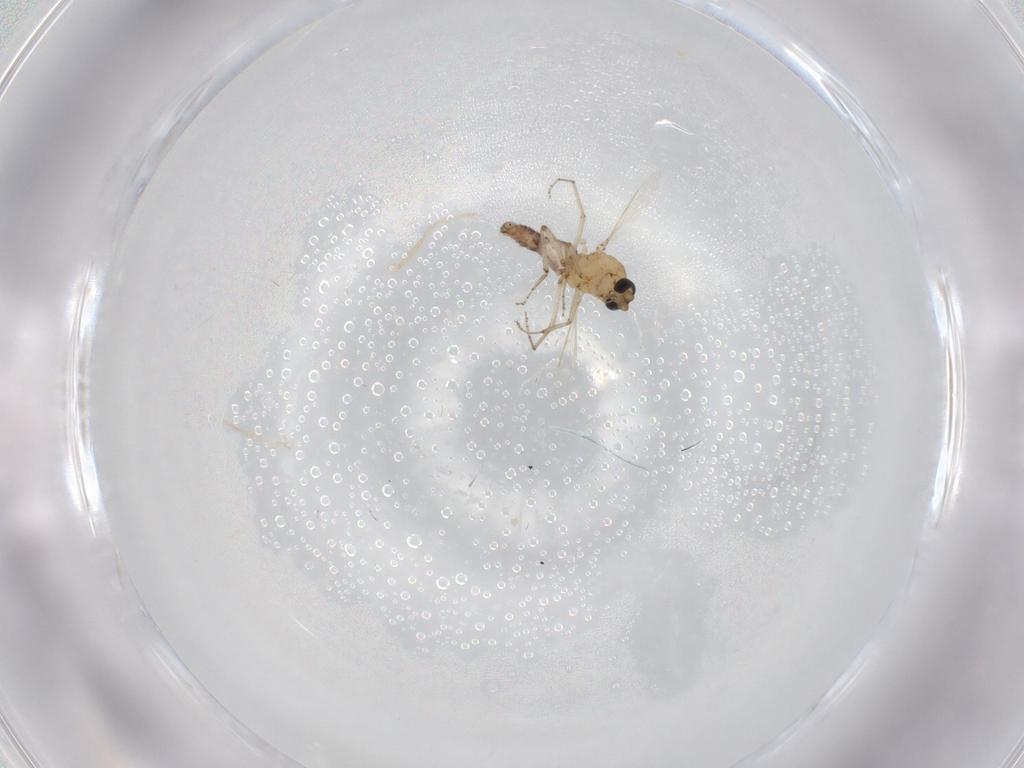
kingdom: Animalia
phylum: Arthropoda
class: Insecta
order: Diptera
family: Ceratopogonidae
